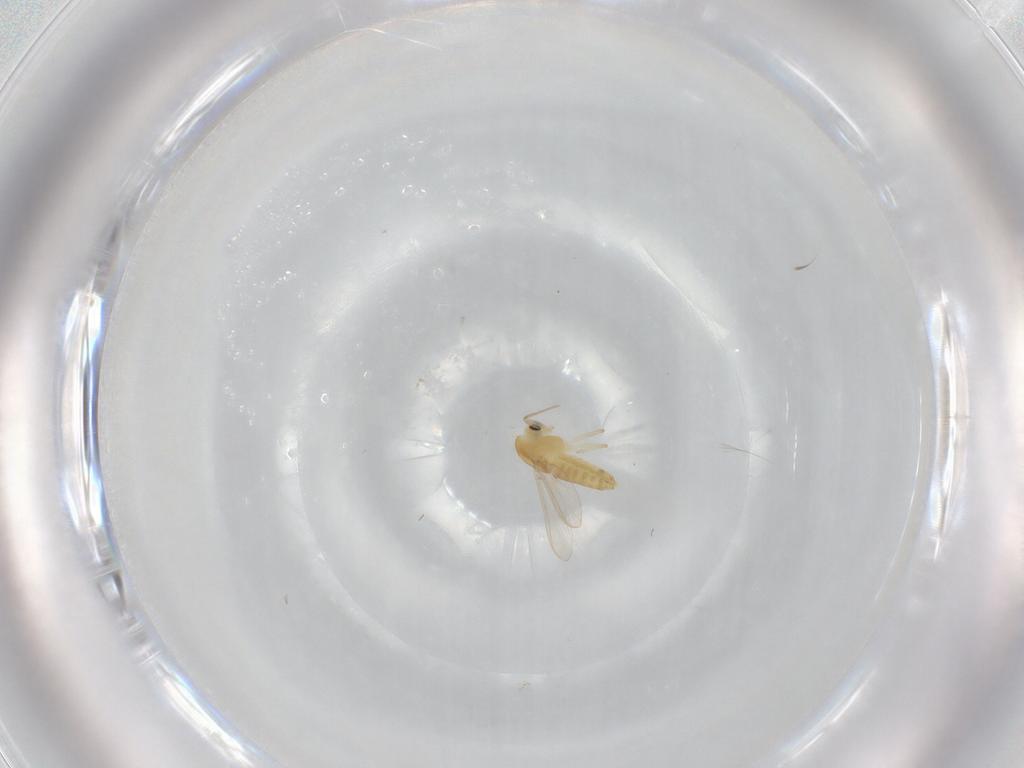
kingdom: Animalia
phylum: Arthropoda
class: Insecta
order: Diptera
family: Chironomidae
